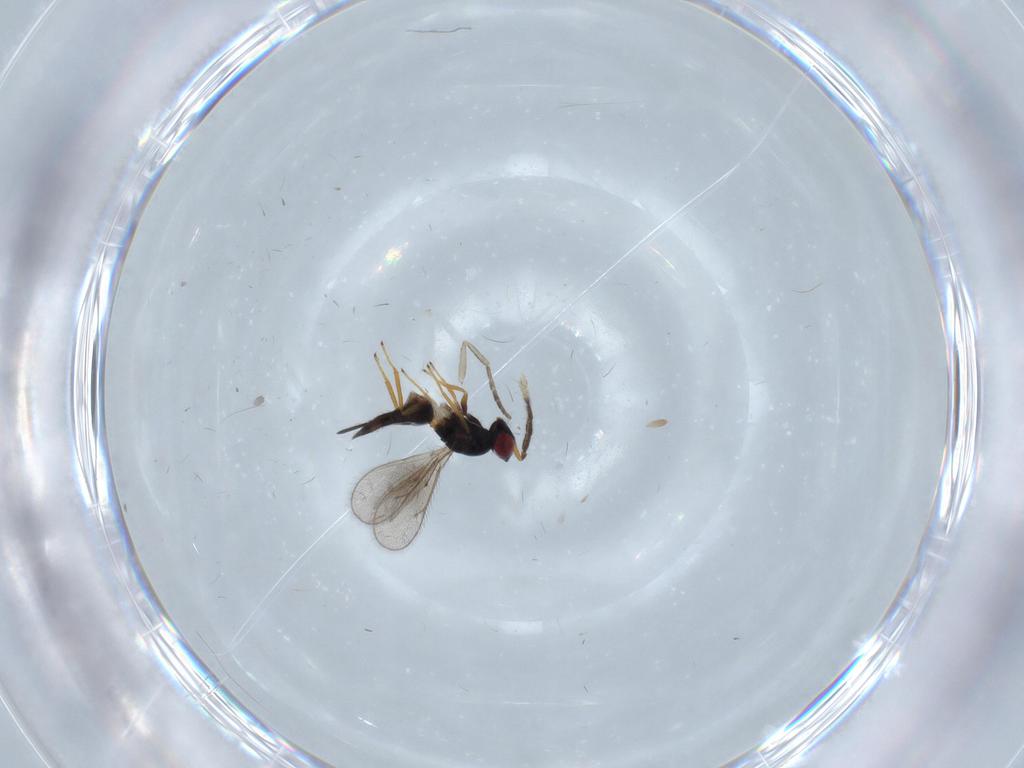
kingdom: Animalia
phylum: Arthropoda
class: Insecta
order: Hymenoptera
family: Eulophidae
